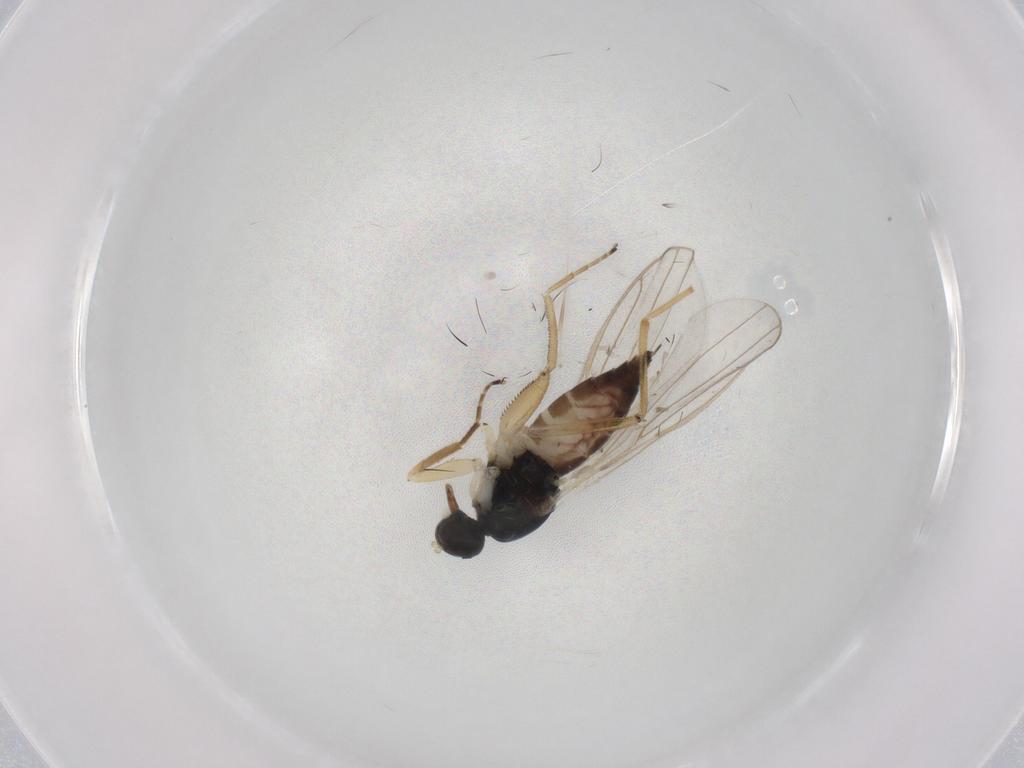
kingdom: Animalia
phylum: Arthropoda
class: Insecta
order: Diptera
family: Hybotidae
